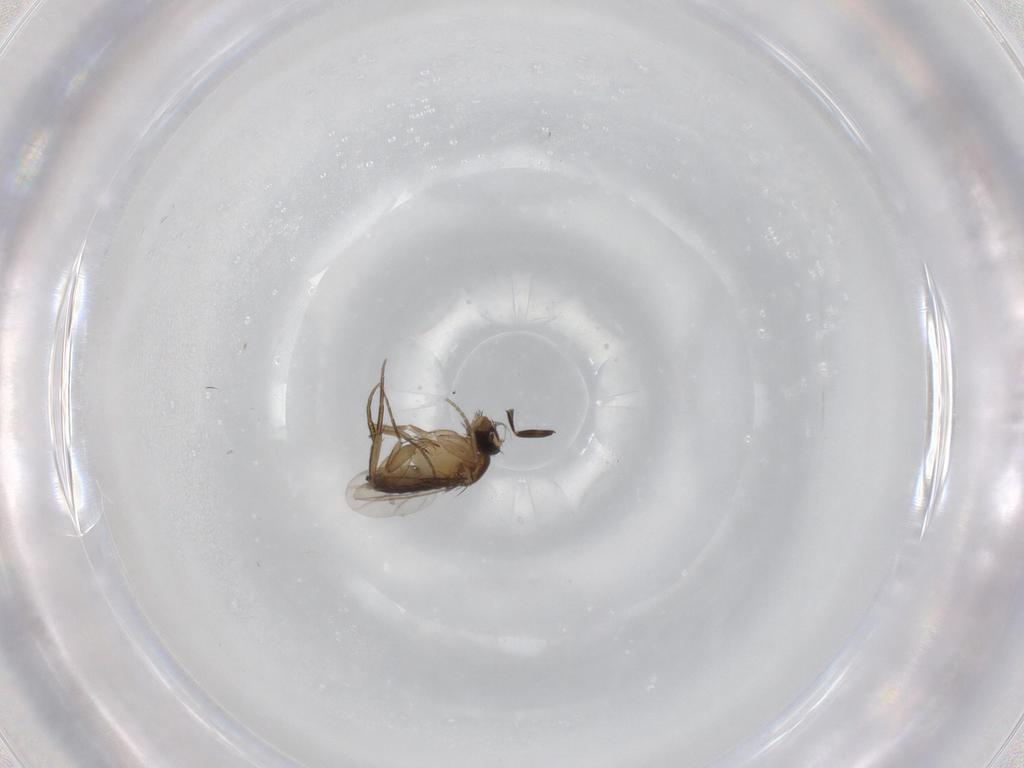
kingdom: Animalia
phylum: Arthropoda
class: Insecta
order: Diptera
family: Phoridae
